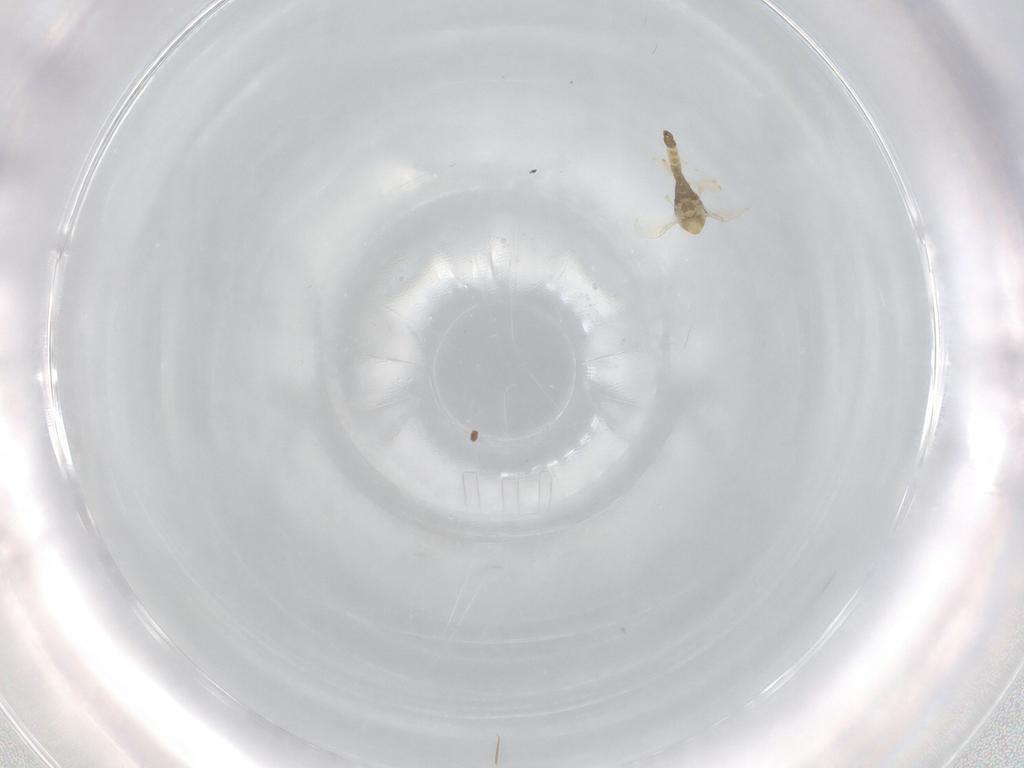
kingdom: Animalia
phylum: Arthropoda
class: Insecta
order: Diptera
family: Chironomidae
